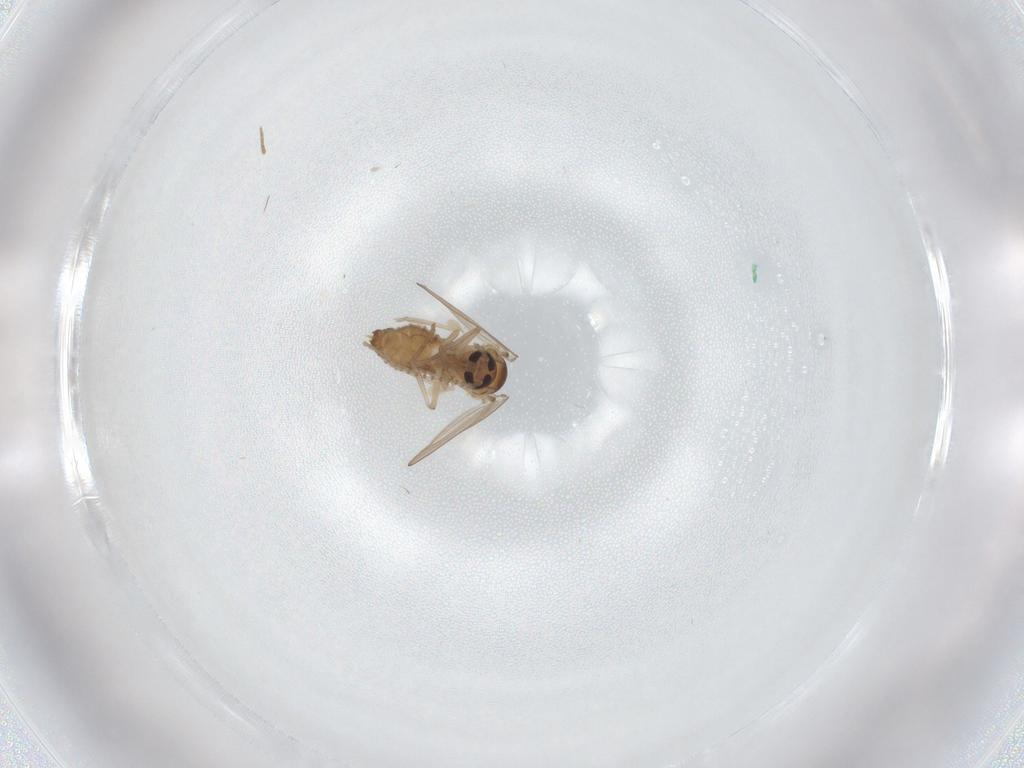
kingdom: Animalia
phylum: Arthropoda
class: Insecta
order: Diptera
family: Psychodidae
